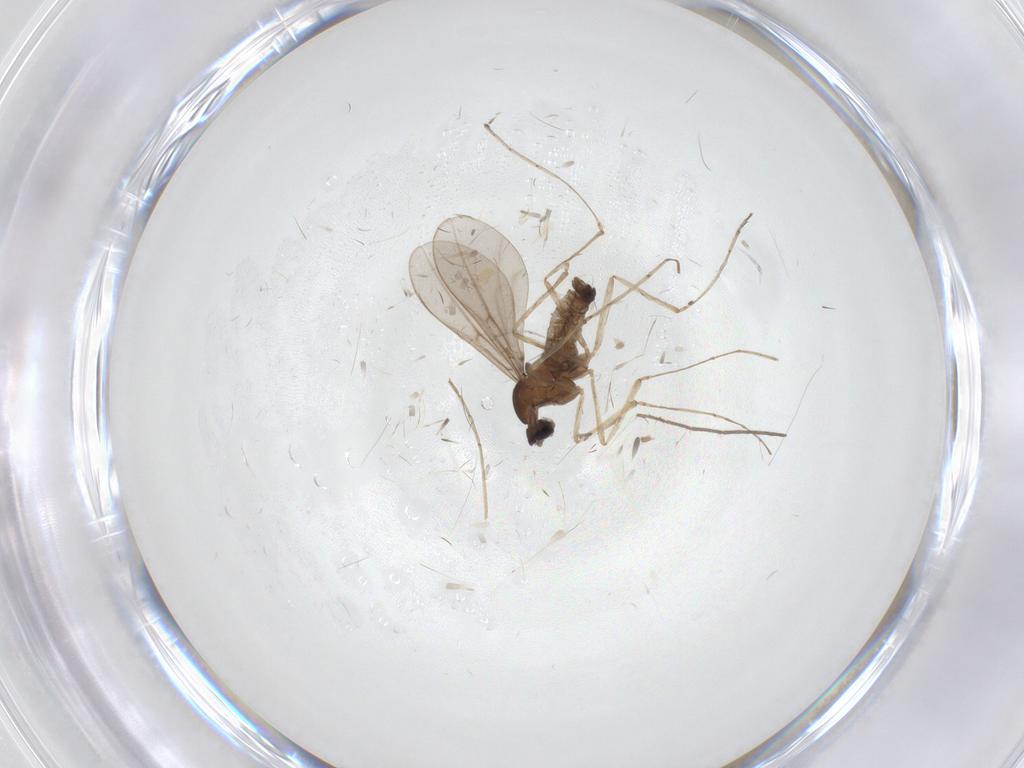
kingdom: Animalia
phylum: Arthropoda
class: Insecta
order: Diptera
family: Cecidomyiidae
